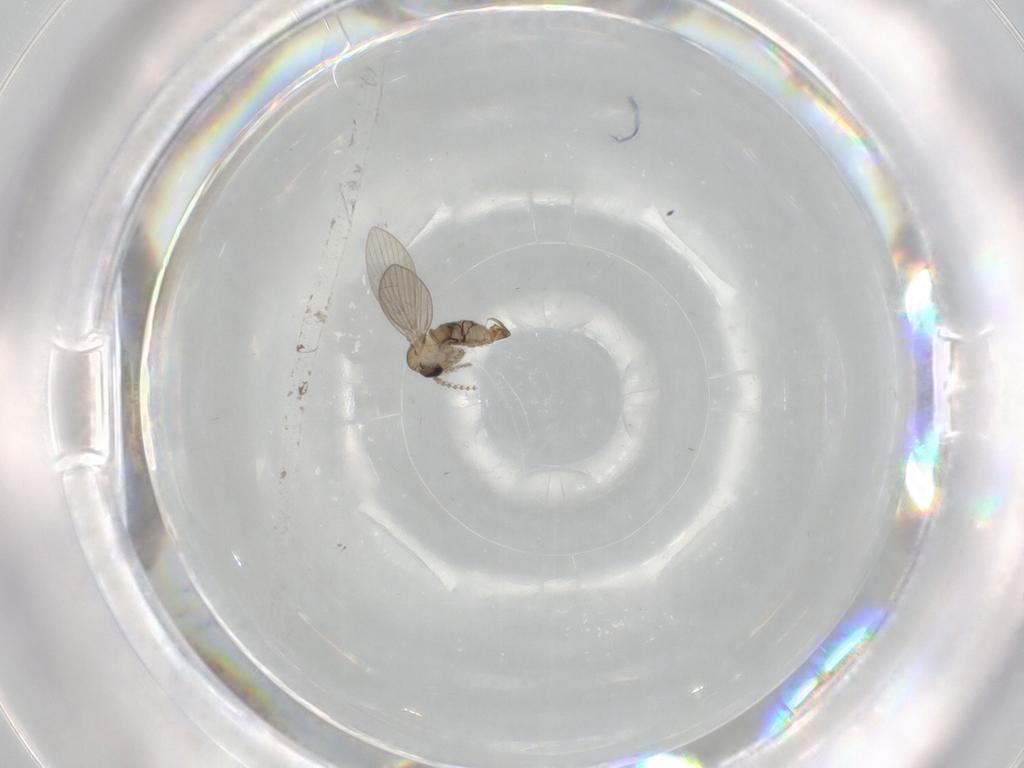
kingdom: Animalia
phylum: Arthropoda
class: Insecta
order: Diptera
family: Psychodidae
